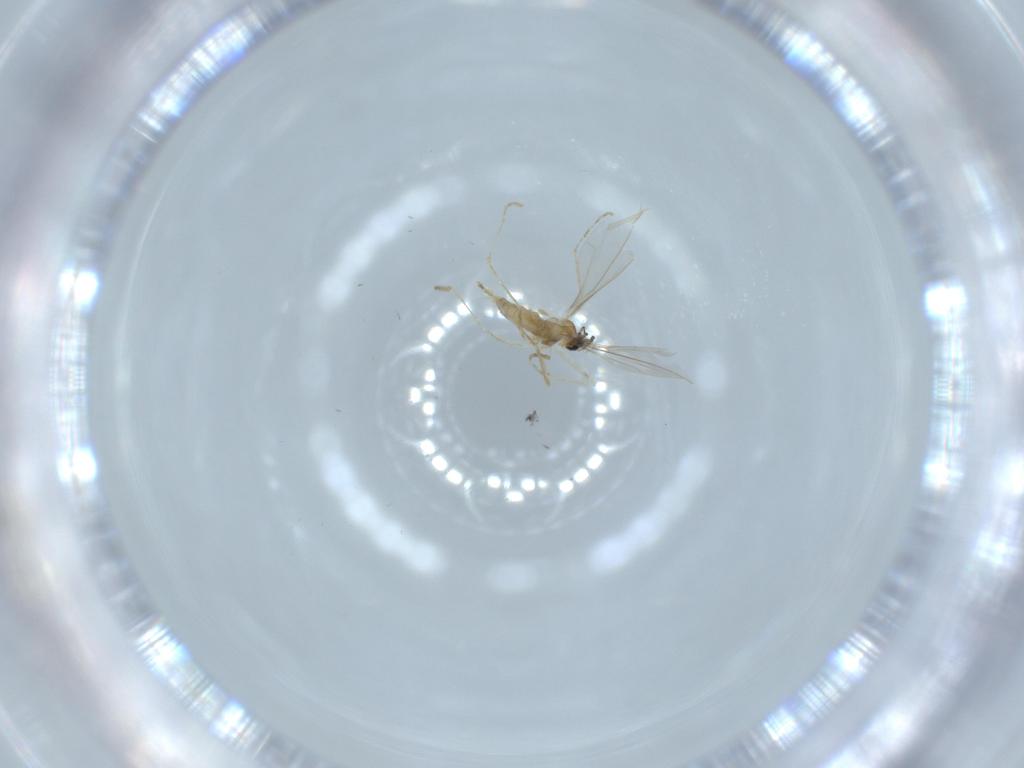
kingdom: Animalia
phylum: Arthropoda
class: Insecta
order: Diptera
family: Cecidomyiidae
